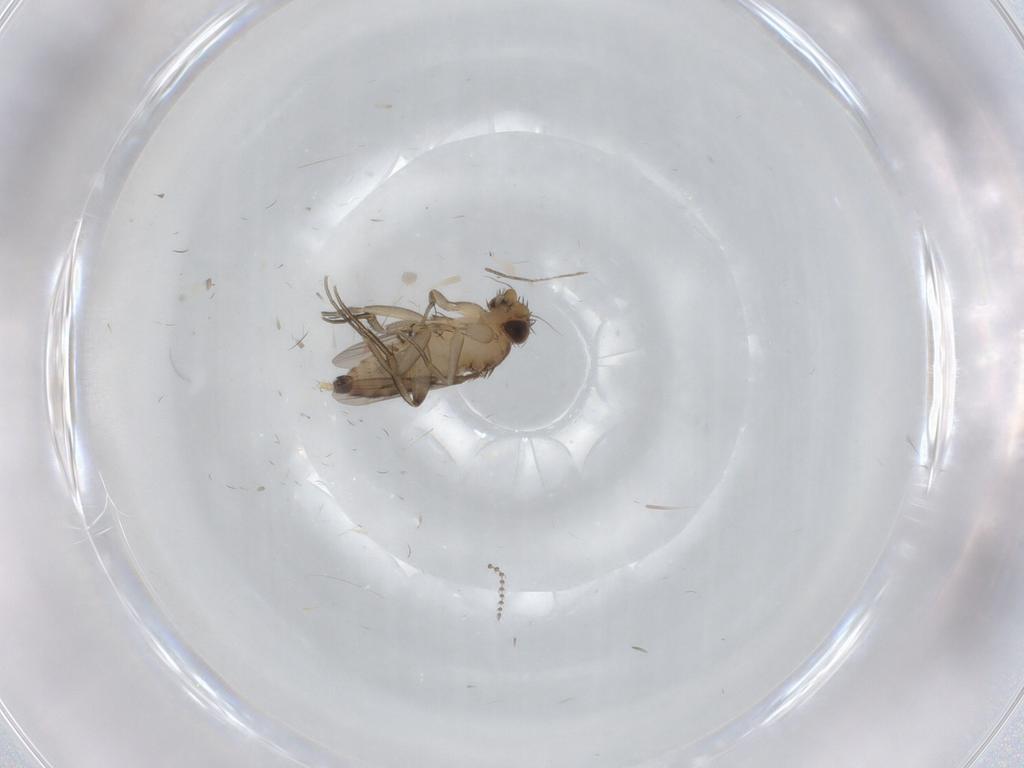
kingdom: Animalia
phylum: Arthropoda
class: Insecta
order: Diptera
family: Psychodidae
